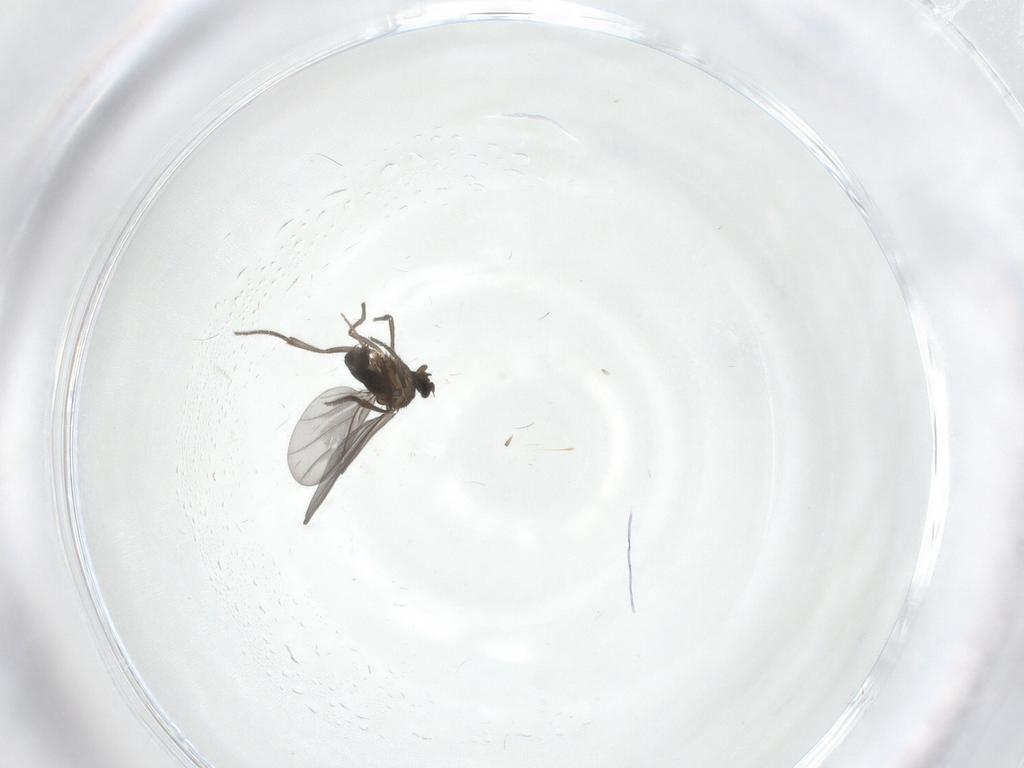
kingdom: Animalia
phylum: Arthropoda
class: Insecta
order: Diptera
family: Phoridae
